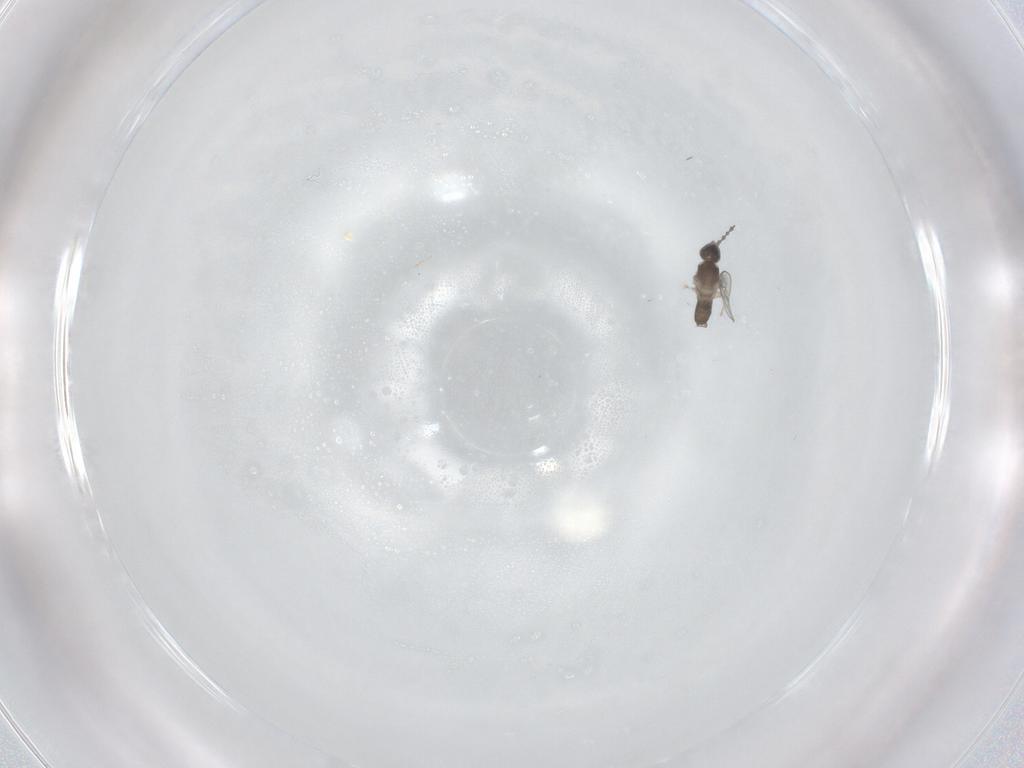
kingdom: Animalia
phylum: Arthropoda
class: Insecta
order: Diptera
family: Cecidomyiidae
